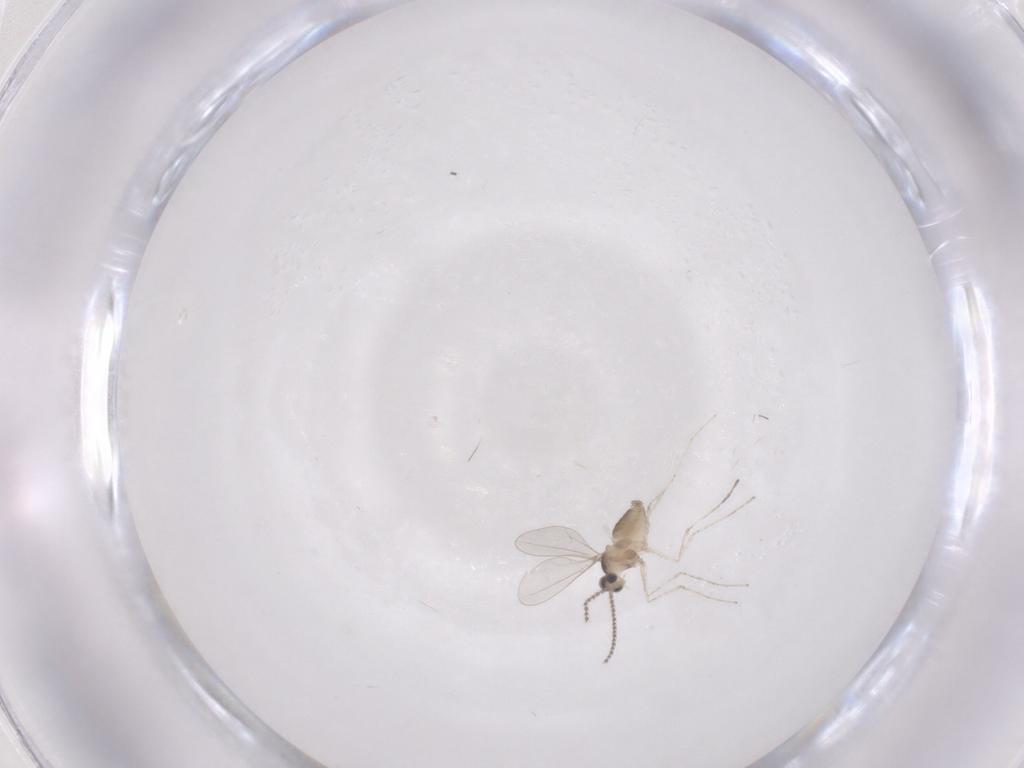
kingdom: Animalia
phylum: Arthropoda
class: Insecta
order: Diptera
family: Cecidomyiidae
